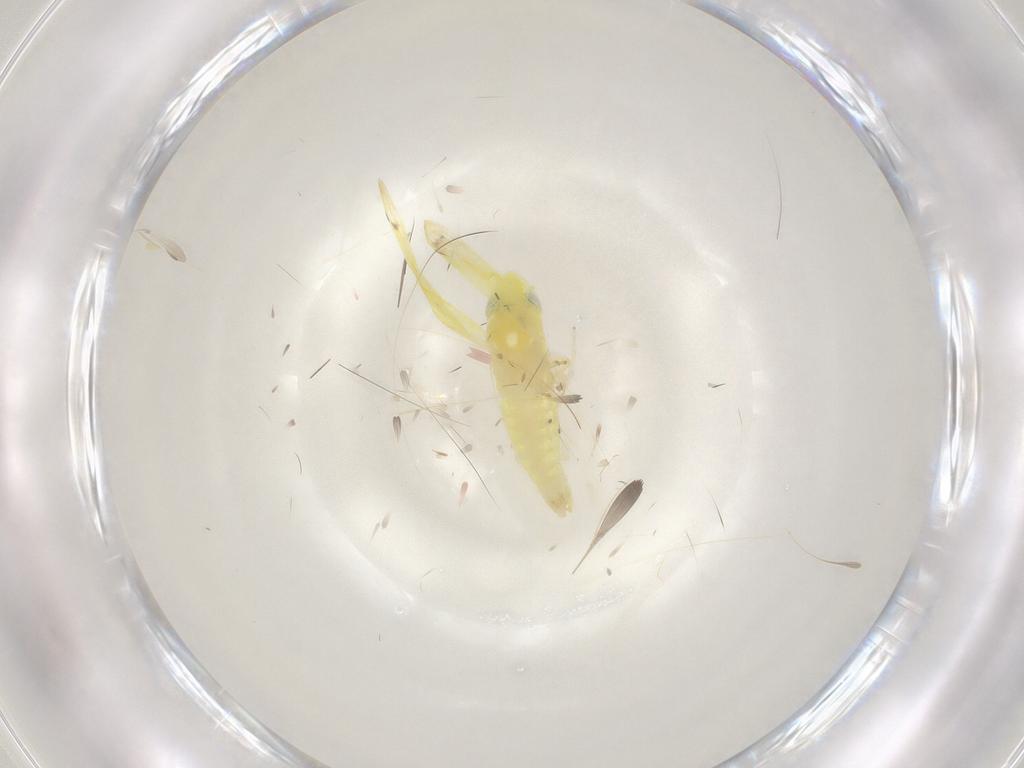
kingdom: Animalia
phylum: Arthropoda
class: Insecta
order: Hemiptera
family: Cicadellidae
